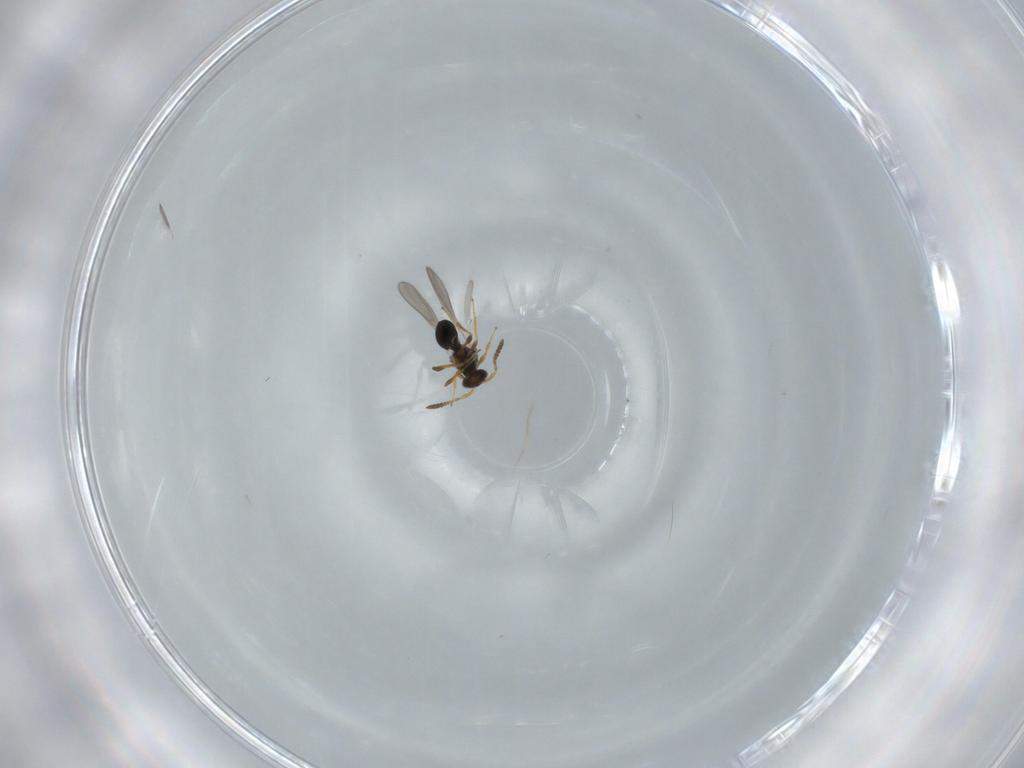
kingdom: Animalia
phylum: Arthropoda
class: Insecta
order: Hymenoptera
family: Platygastridae
